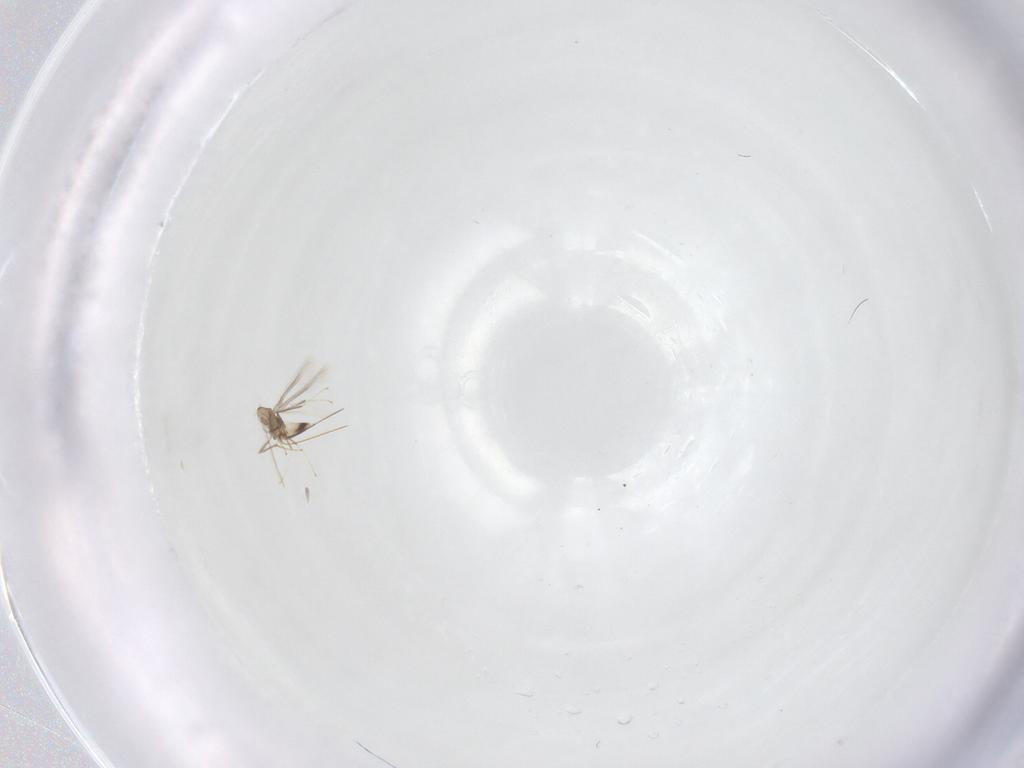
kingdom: Animalia
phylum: Arthropoda
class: Insecta
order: Hymenoptera
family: Mymaridae
